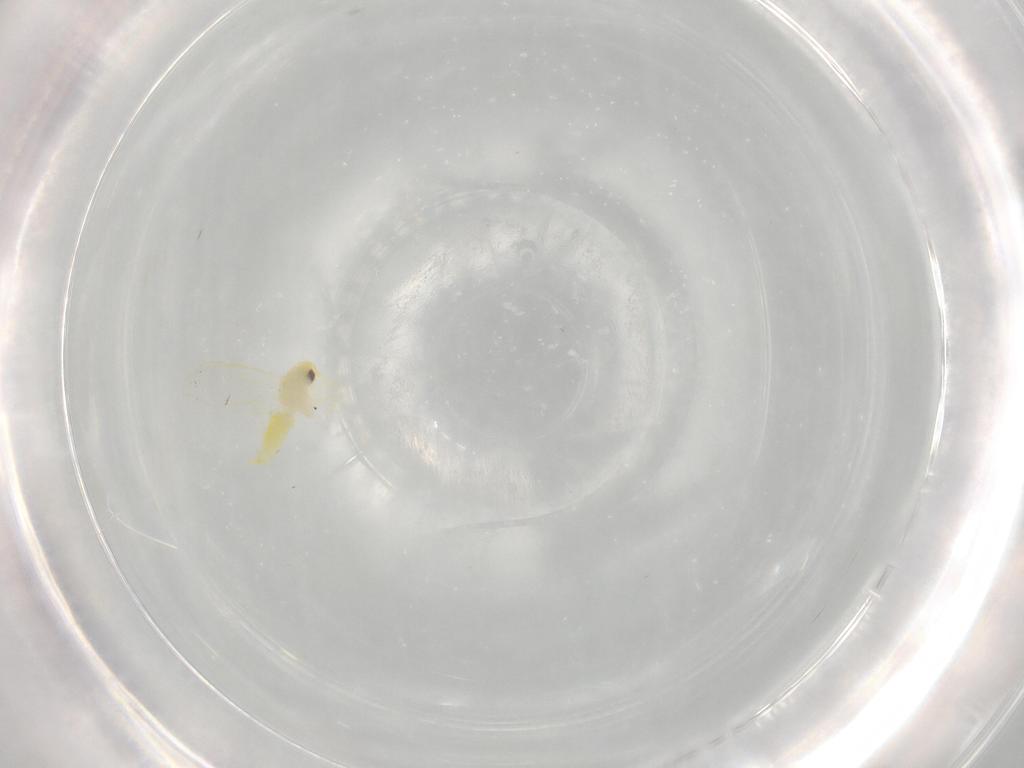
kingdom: Animalia
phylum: Arthropoda
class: Insecta
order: Hemiptera
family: Aleyrodidae
